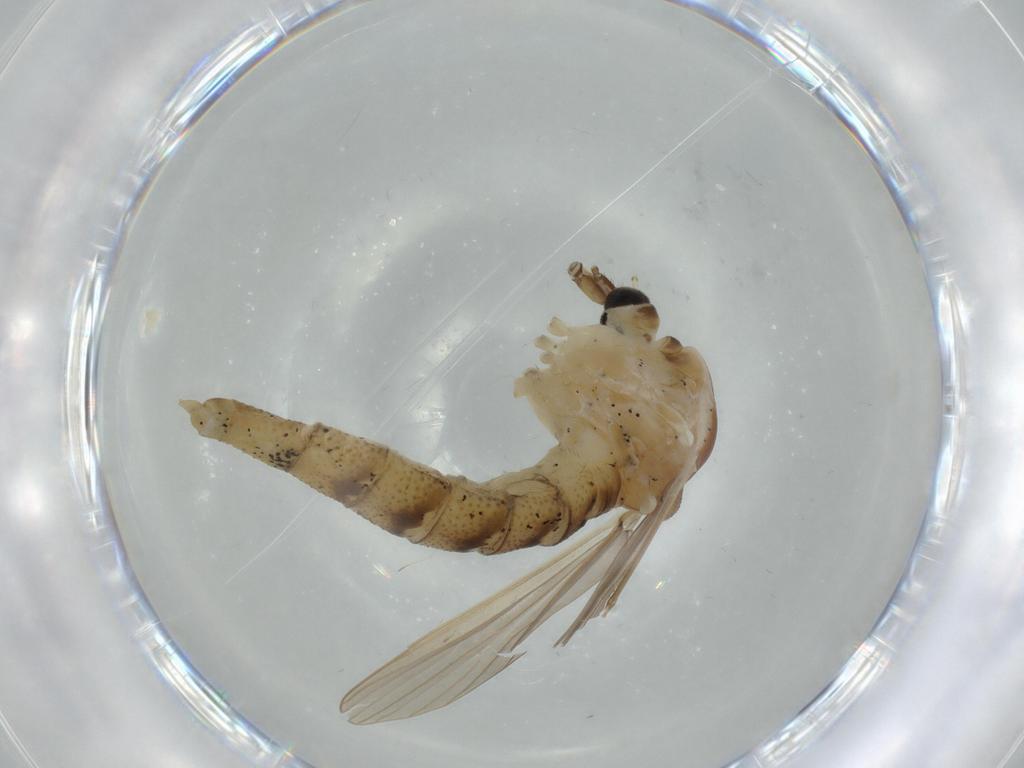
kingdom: Animalia
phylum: Arthropoda
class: Insecta
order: Diptera
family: Chironomidae
